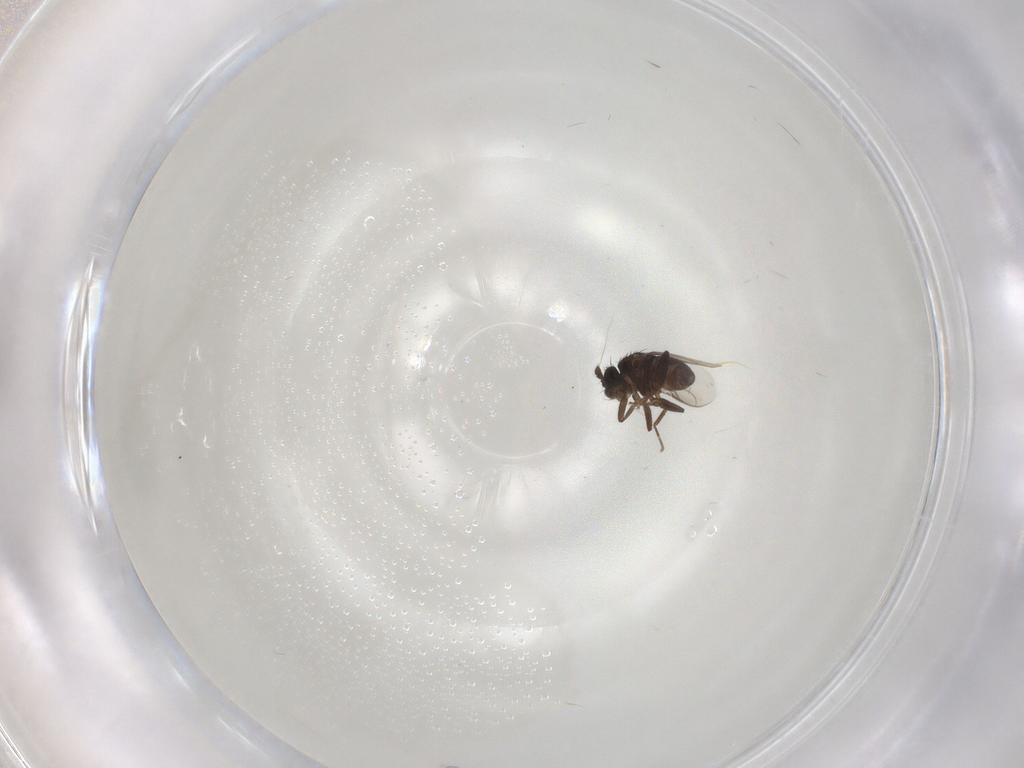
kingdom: Animalia
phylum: Arthropoda
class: Insecta
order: Diptera
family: Sphaeroceridae
